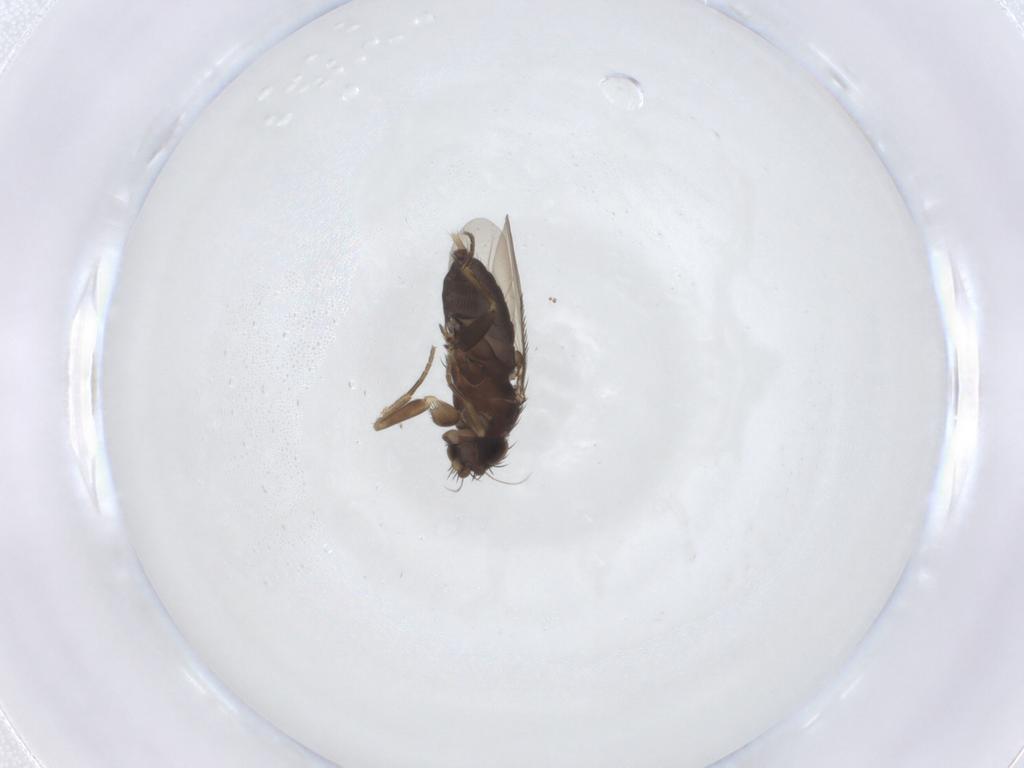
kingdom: Animalia
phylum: Arthropoda
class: Insecta
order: Diptera
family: Phoridae
